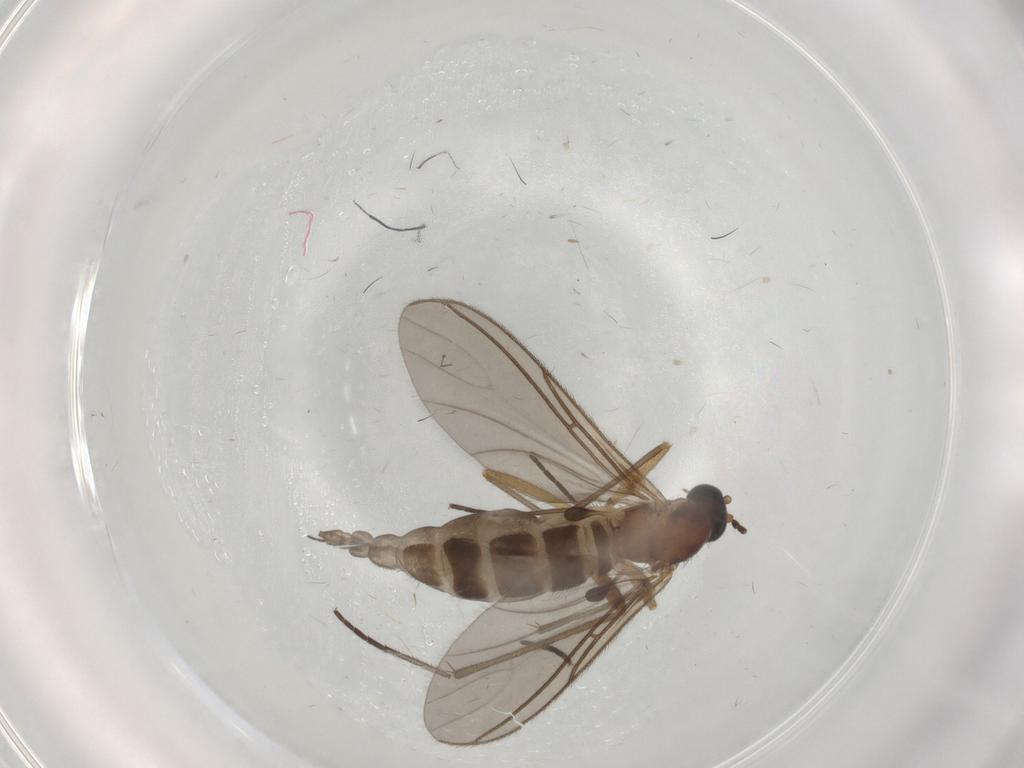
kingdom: Animalia
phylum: Arthropoda
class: Insecta
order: Diptera
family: Sciaridae
